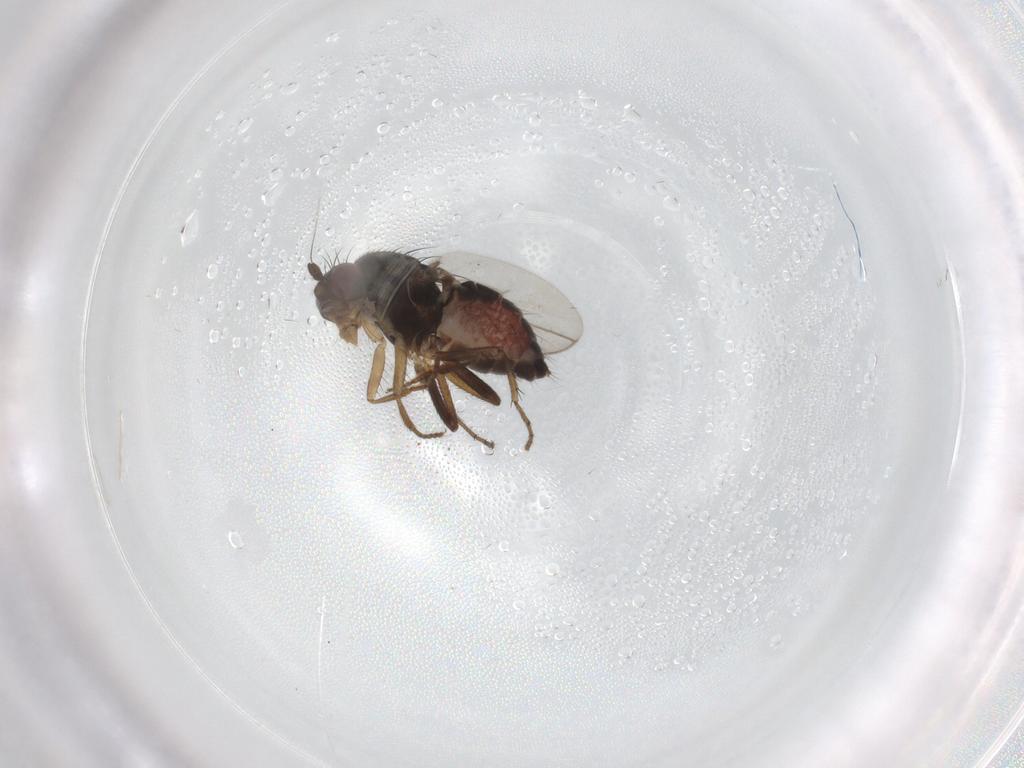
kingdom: Animalia
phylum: Arthropoda
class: Insecta
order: Diptera
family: Sphaeroceridae
